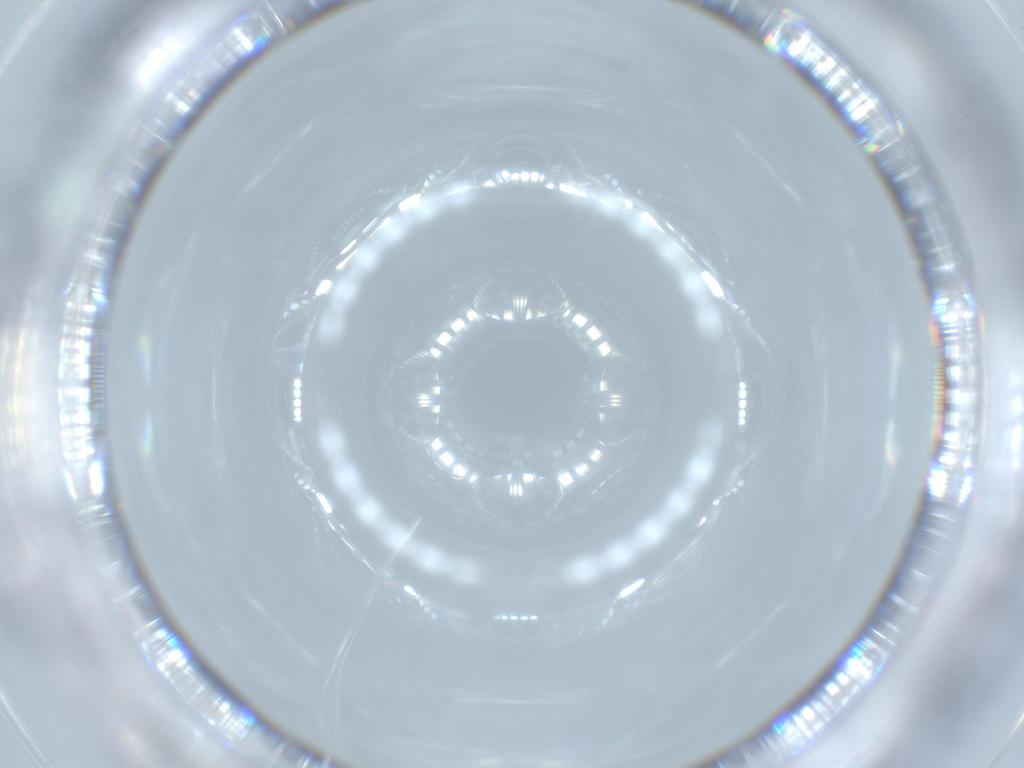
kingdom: Animalia
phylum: Arthropoda
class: Insecta
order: Hymenoptera
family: Platygastridae
